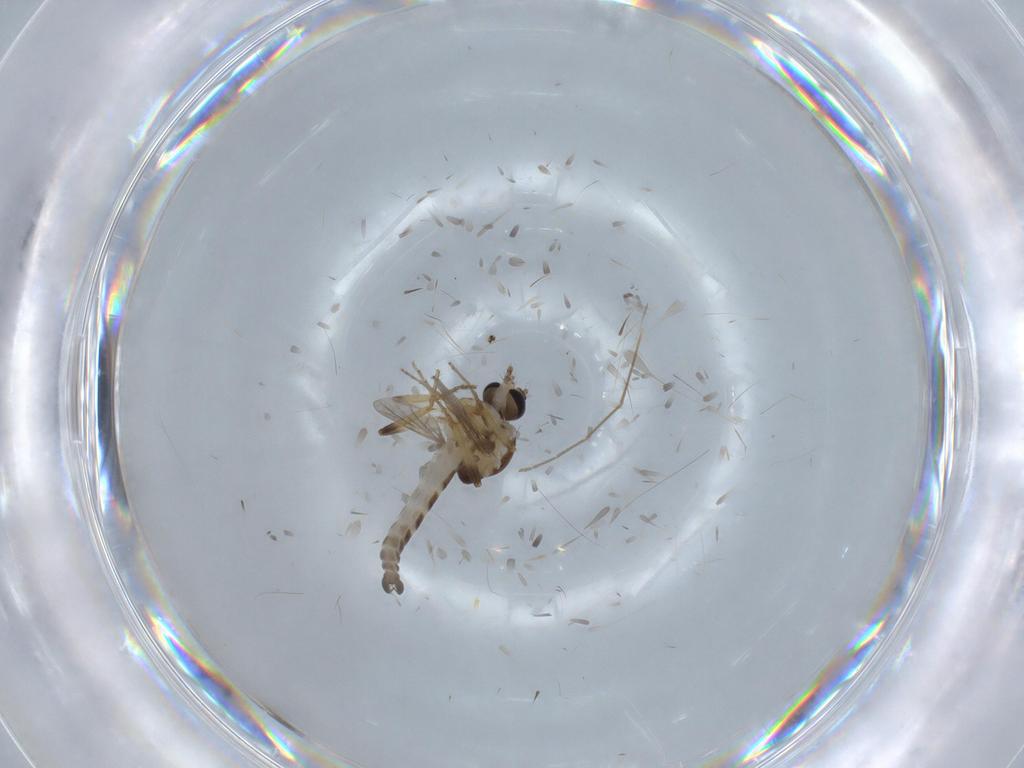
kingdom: Animalia
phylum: Arthropoda
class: Insecta
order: Diptera
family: Ceratopogonidae
